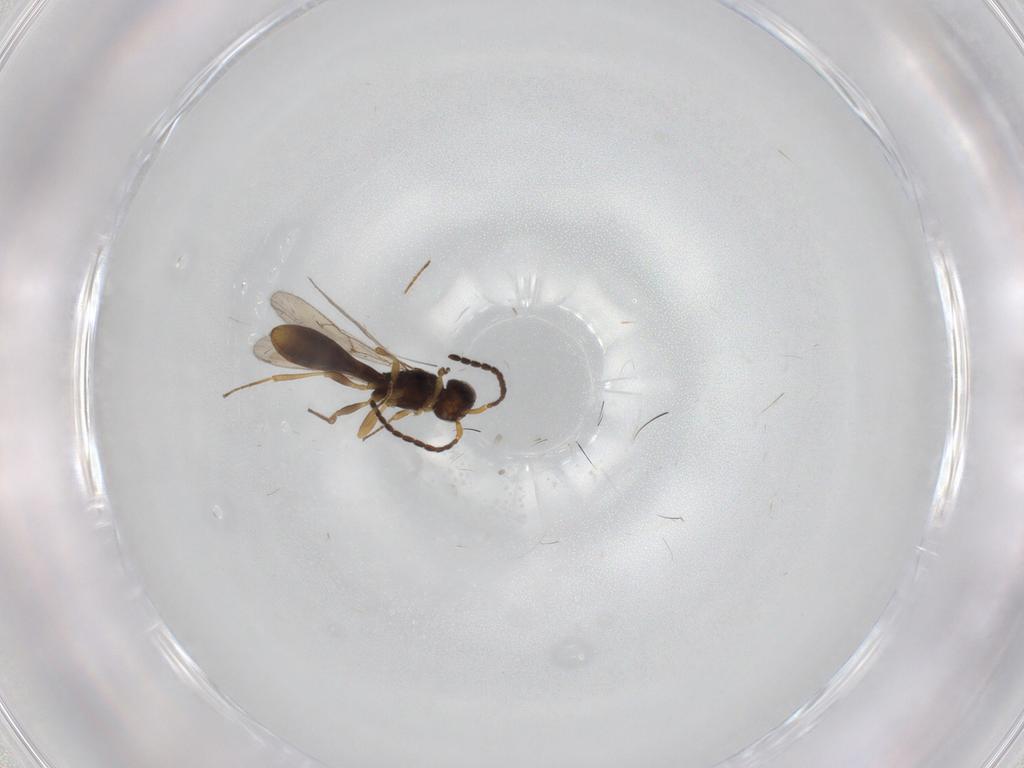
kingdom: Animalia
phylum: Arthropoda
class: Insecta
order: Hymenoptera
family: Scelionidae
